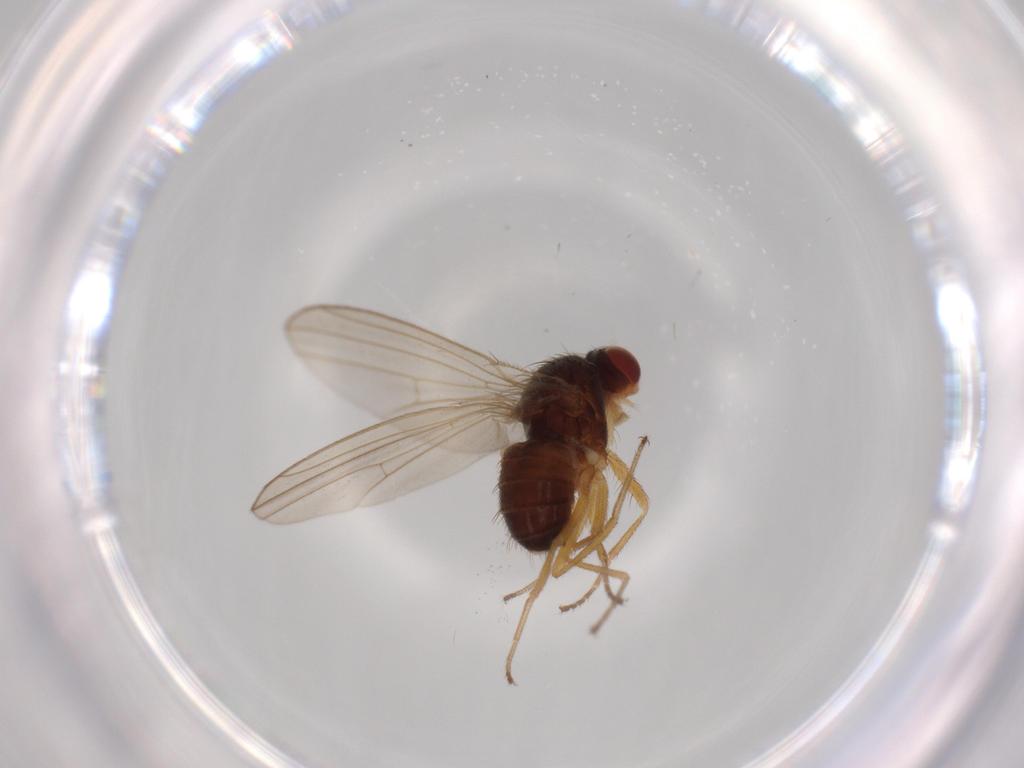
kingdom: Animalia
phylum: Arthropoda
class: Insecta
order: Diptera
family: Drosophilidae
